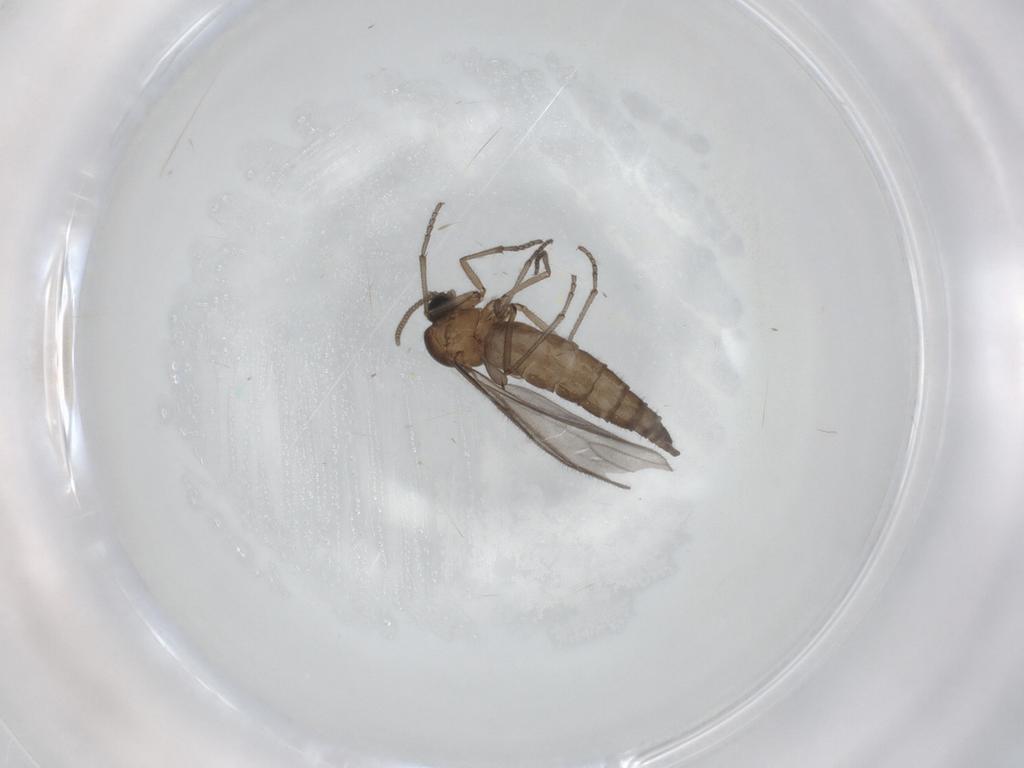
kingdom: Animalia
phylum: Arthropoda
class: Insecta
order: Diptera
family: Sciaridae
